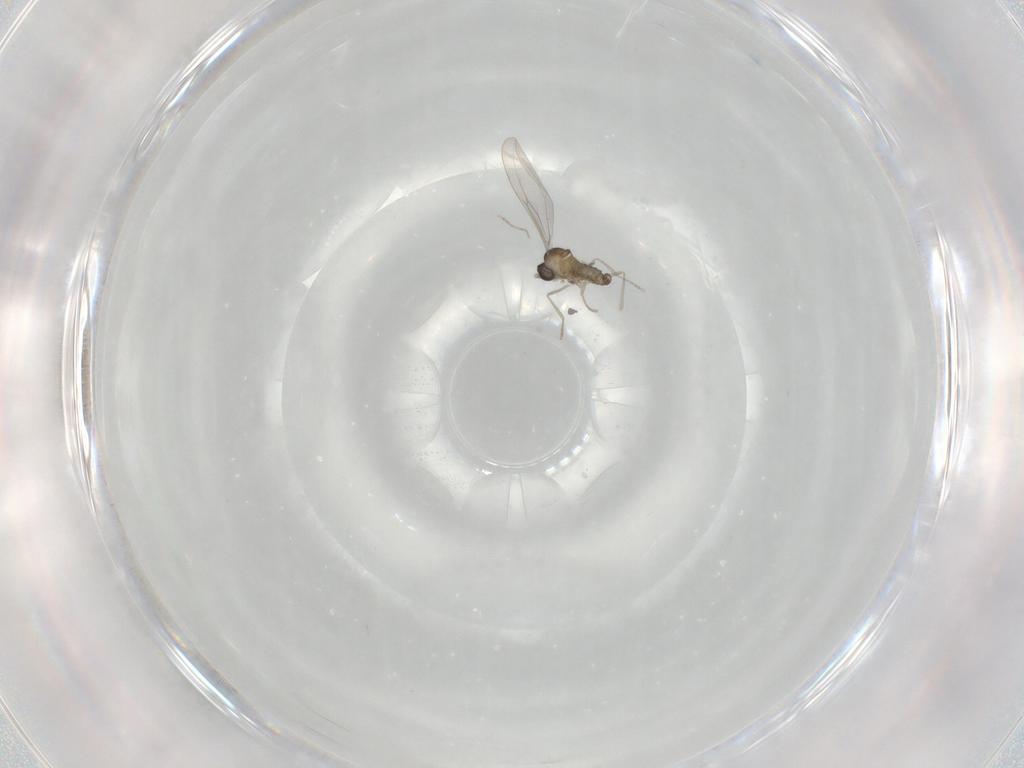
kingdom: Animalia
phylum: Arthropoda
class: Insecta
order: Diptera
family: Cecidomyiidae
